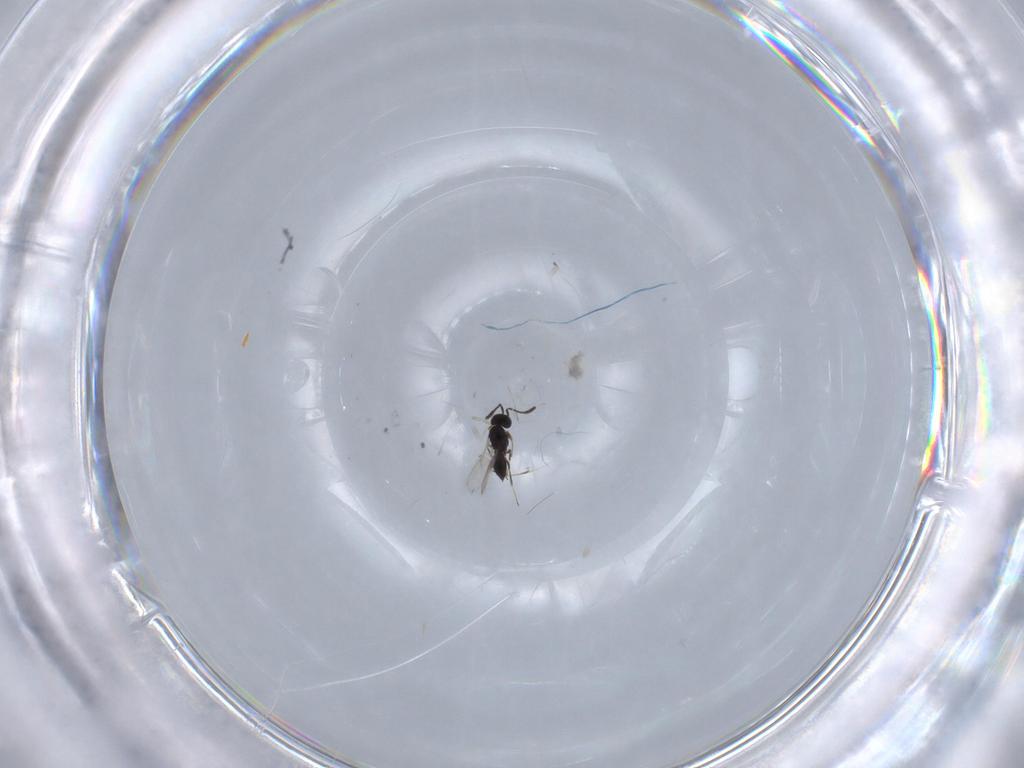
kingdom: Animalia
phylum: Arthropoda
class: Insecta
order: Hymenoptera
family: Scelionidae
